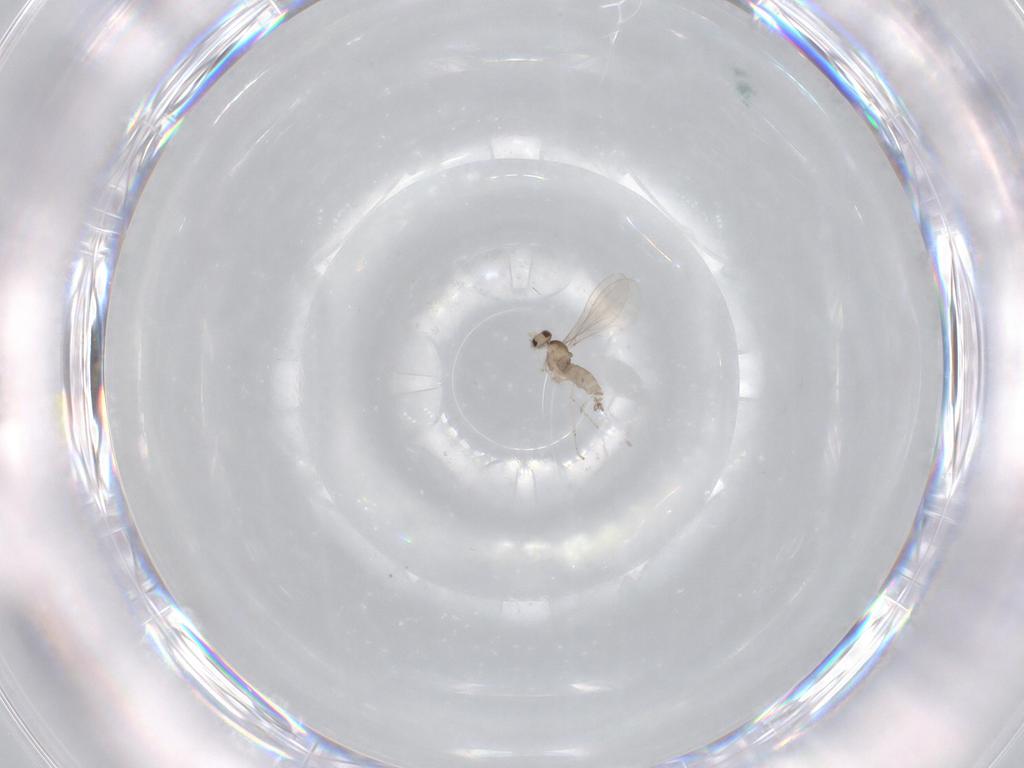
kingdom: Animalia
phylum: Arthropoda
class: Insecta
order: Diptera
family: Cecidomyiidae
